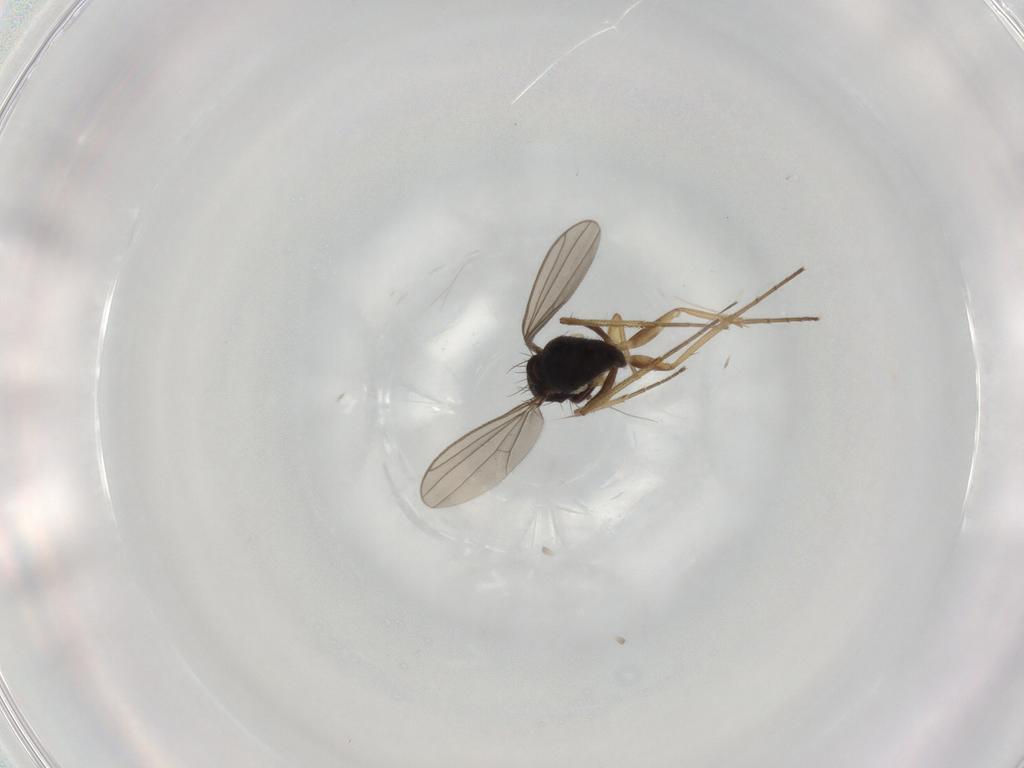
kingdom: Animalia
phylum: Arthropoda
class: Insecta
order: Diptera
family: Dolichopodidae
